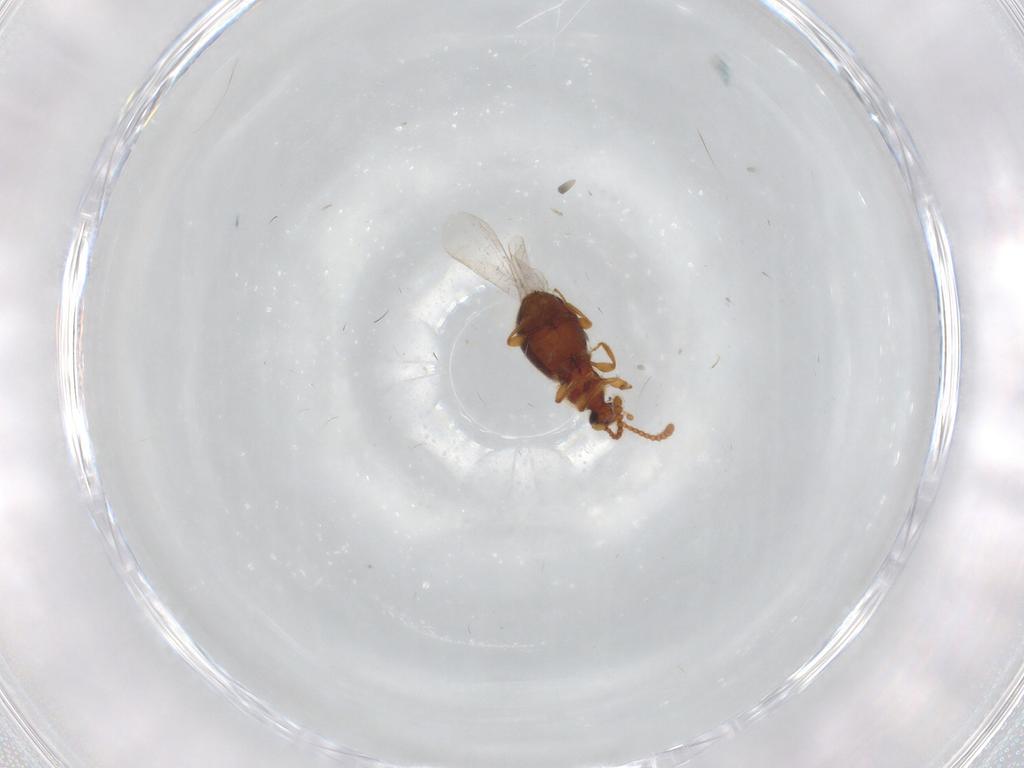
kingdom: Animalia
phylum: Arthropoda
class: Insecta
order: Coleoptera
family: Staphylinidae
